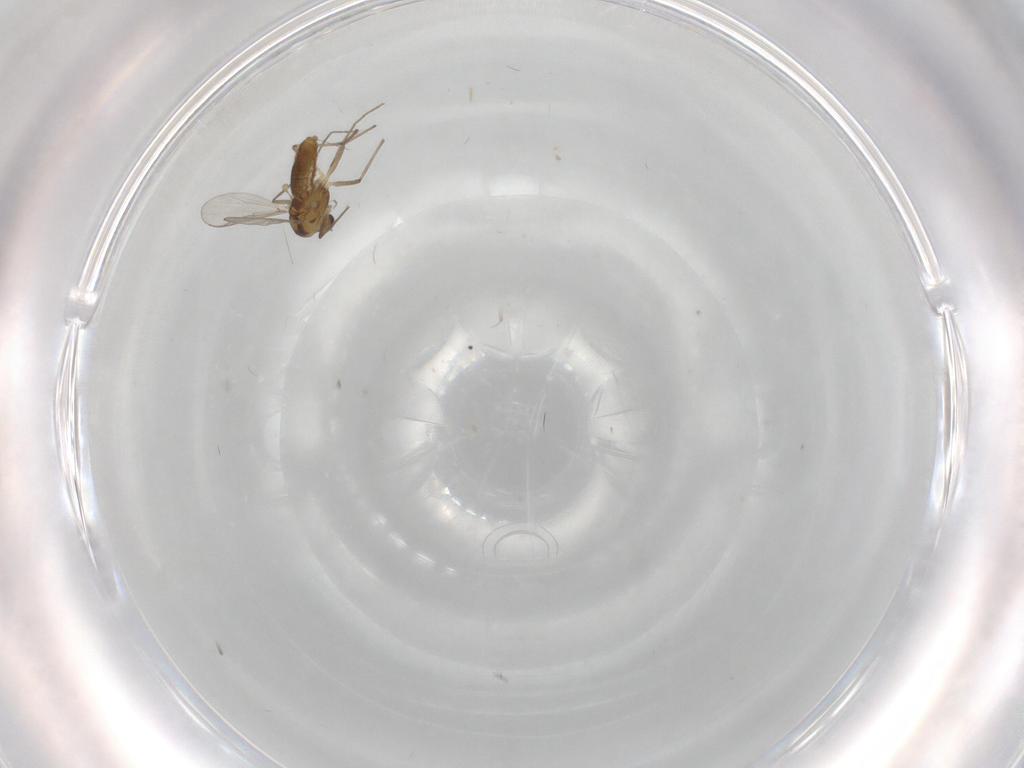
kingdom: Animalia
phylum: Arthropoda
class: Insecta
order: Diptera
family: Chironomidae
